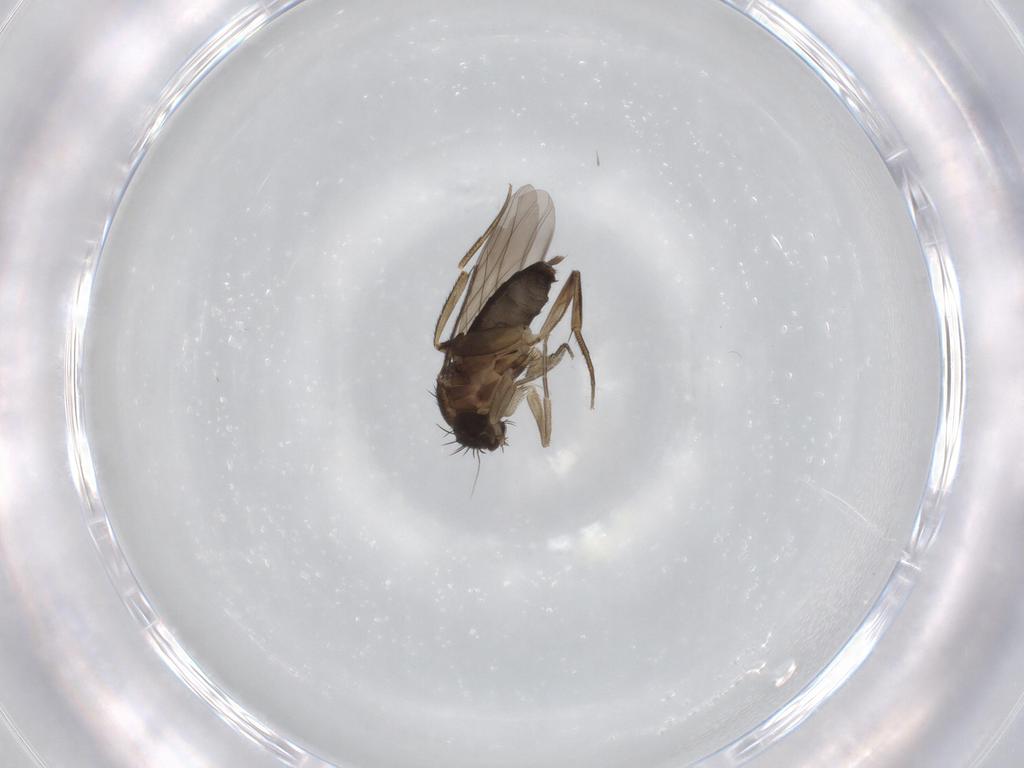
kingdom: Animalia
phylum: Arthropoda
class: Insecta
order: Diptera
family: Phoridae
